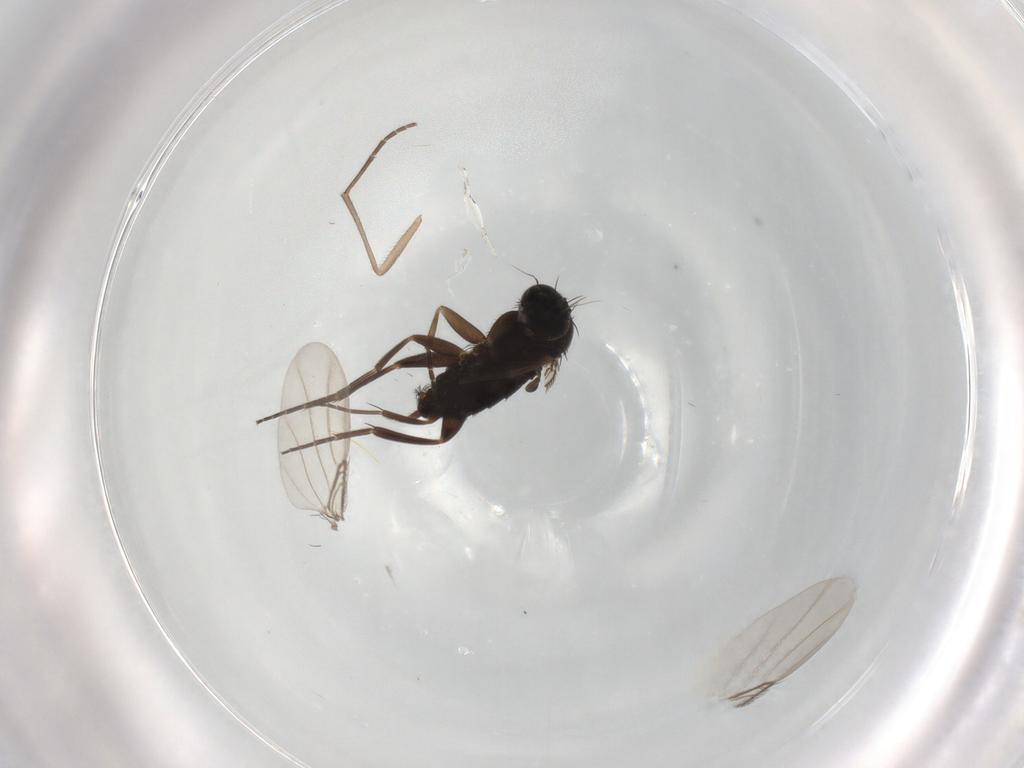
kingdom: Animalia
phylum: Arthropoda
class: Insecta
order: Diptera
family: Phoridae
